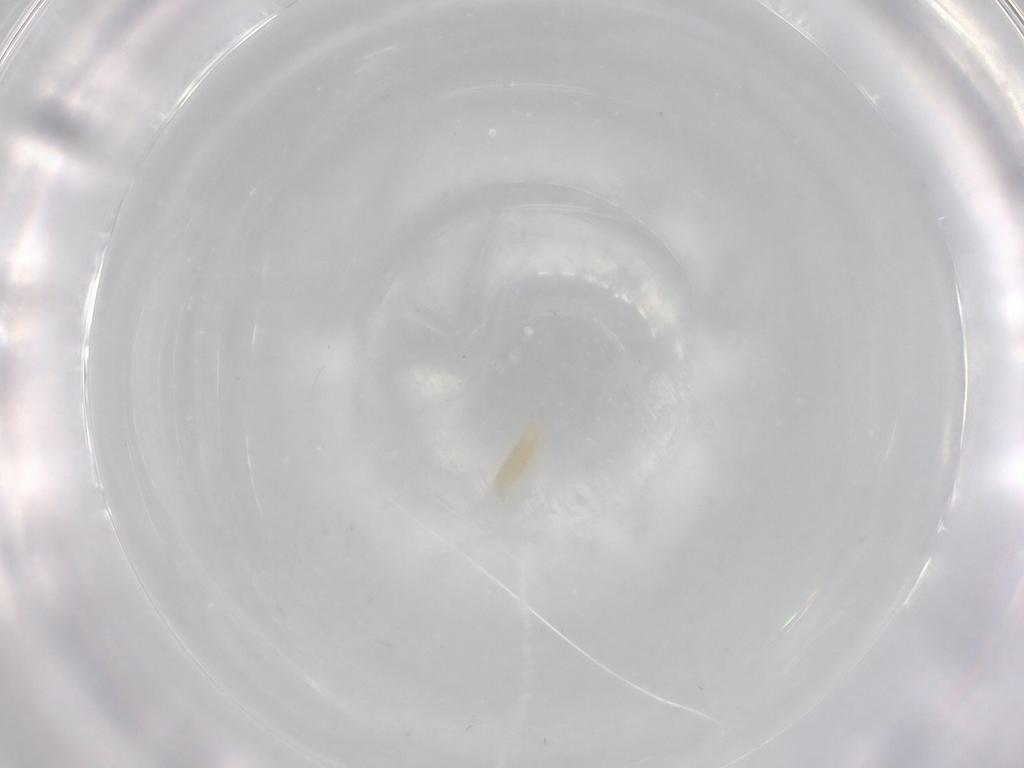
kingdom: Animalia
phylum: Arthropoda
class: Insecta
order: Diptera
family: Cecidomyiidae
